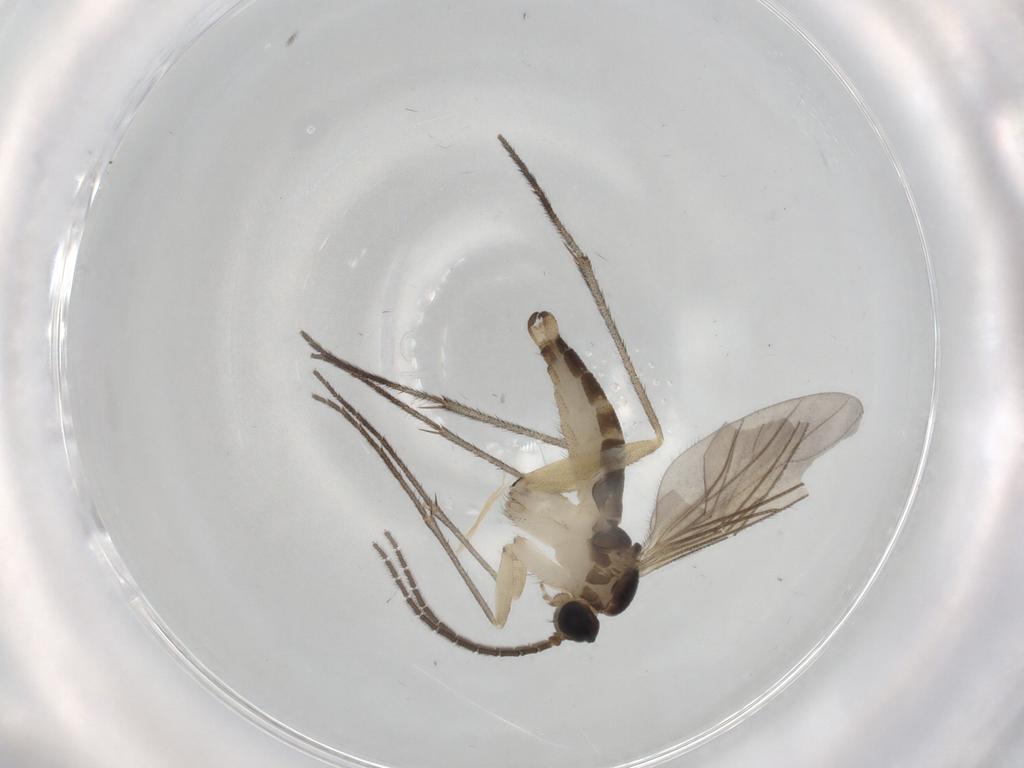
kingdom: Animalia
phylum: Arthropoda
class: Insecta
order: Diptera
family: Sciaridae
